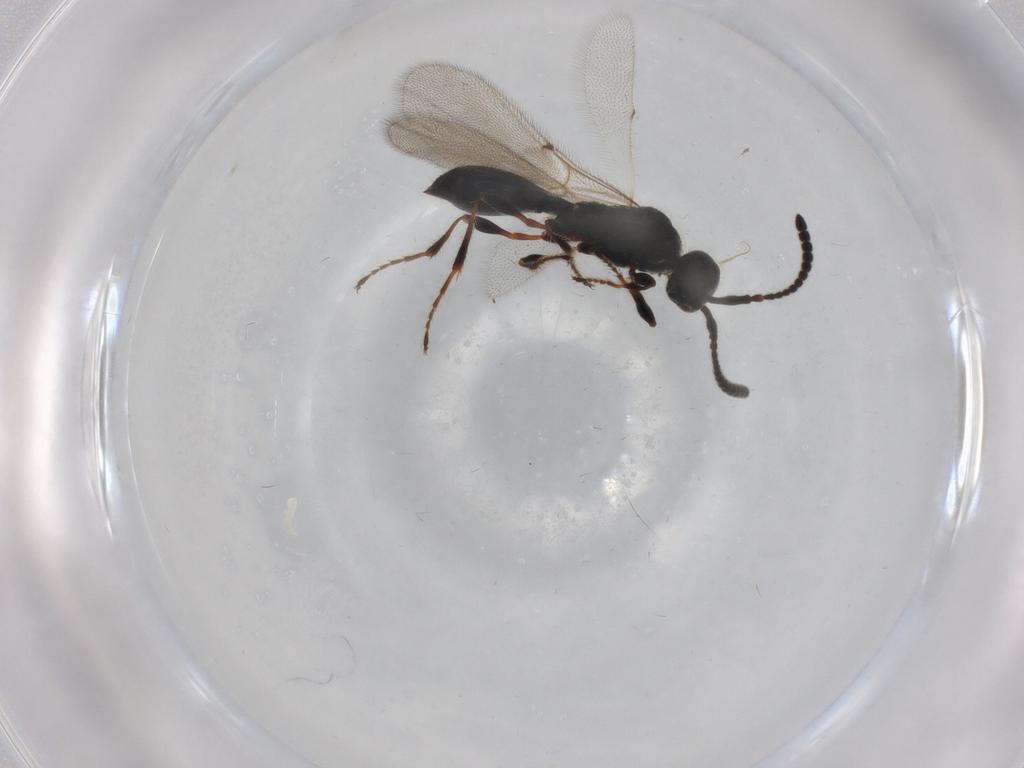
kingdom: Animalia
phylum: Arthropoda
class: Insecta
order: Hymenoptera
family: Diapriidae
